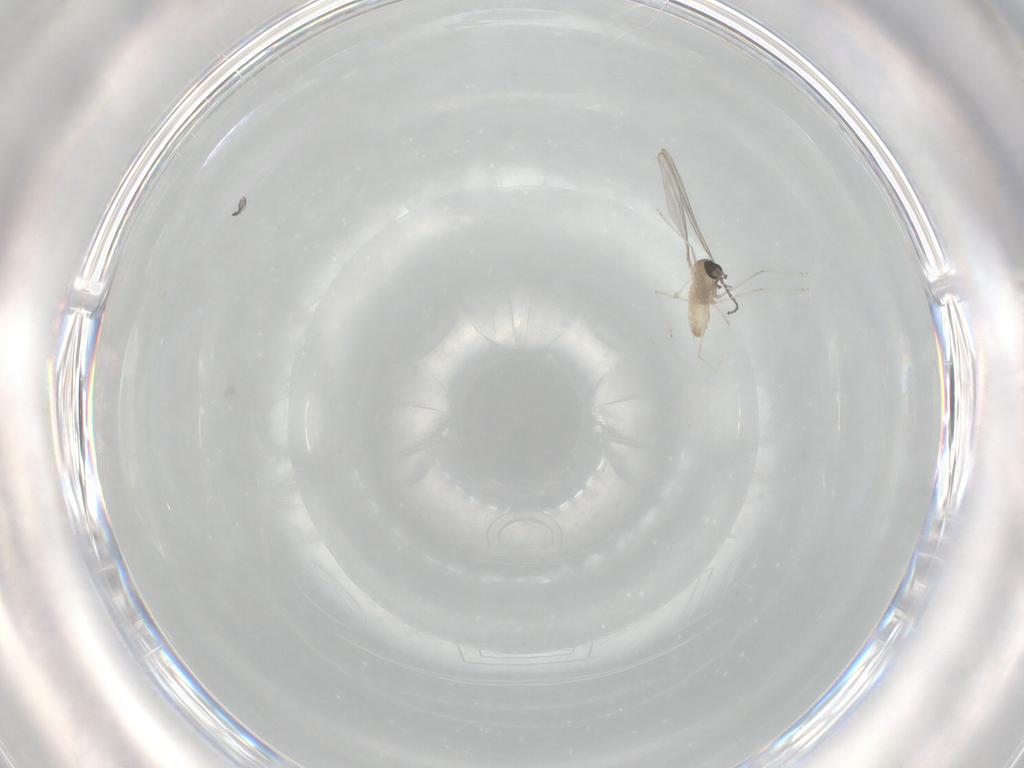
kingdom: Animalia
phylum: Arthropoda
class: Insecta
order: Diptera
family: Cecidomyiidae
